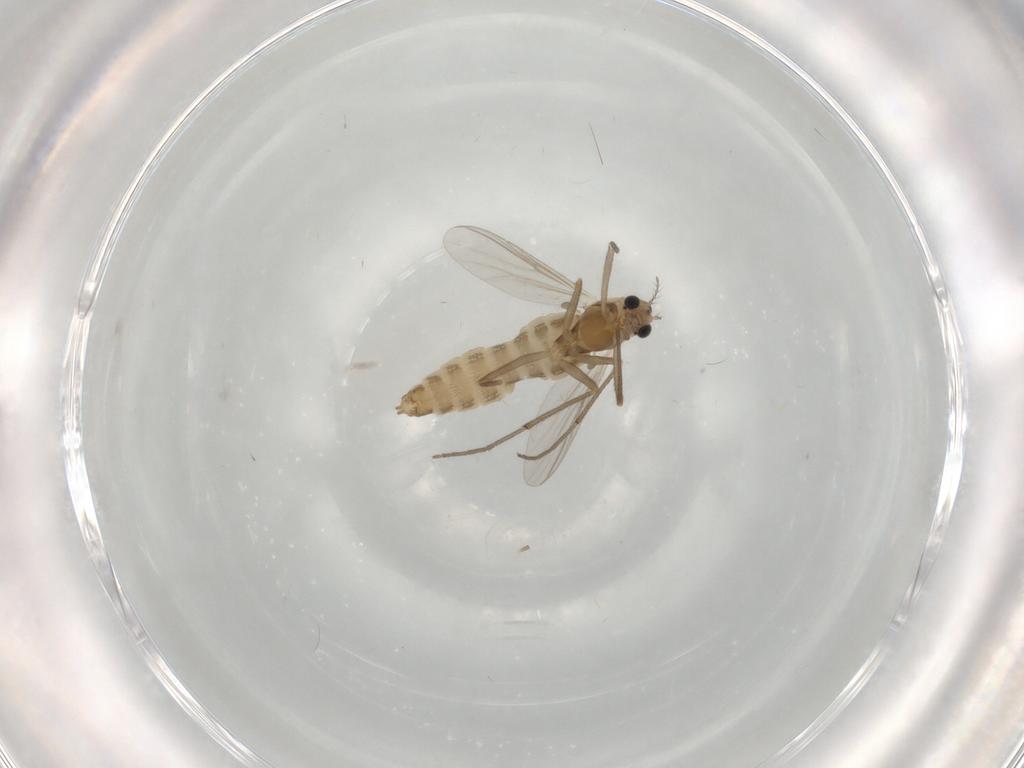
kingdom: Animalia
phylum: Arthropoda
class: Insecta
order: Diptera
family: Chironomidae
